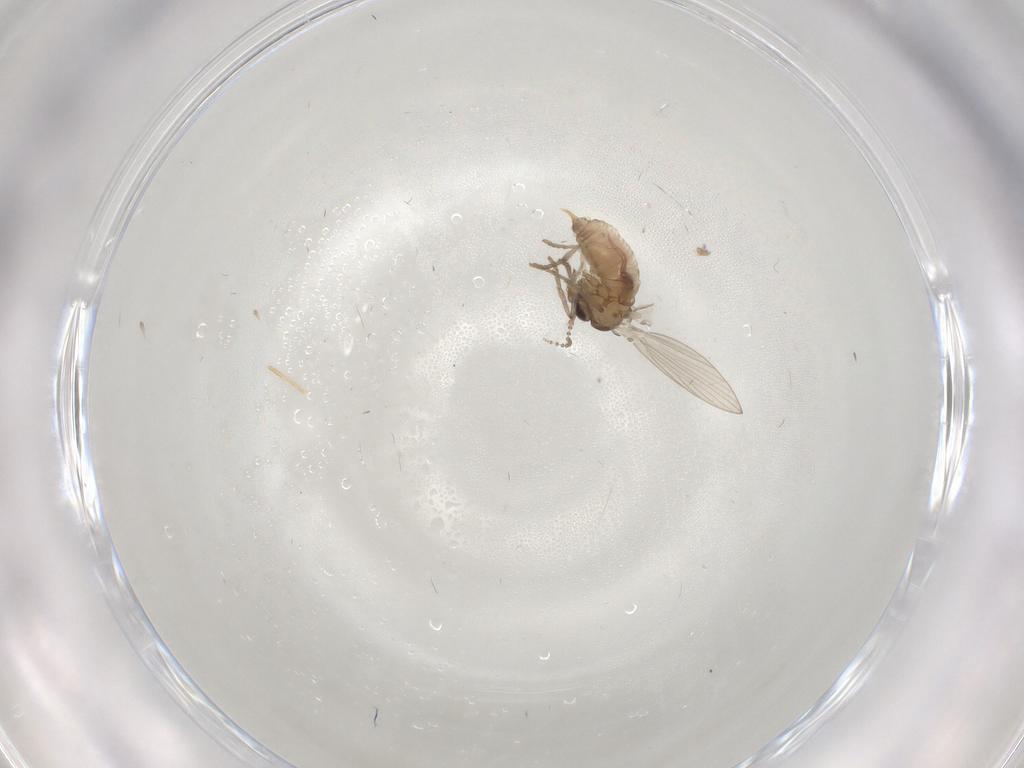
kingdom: Animalia
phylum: Arthropoda
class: Insecta
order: Diptera
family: Psychodidae
